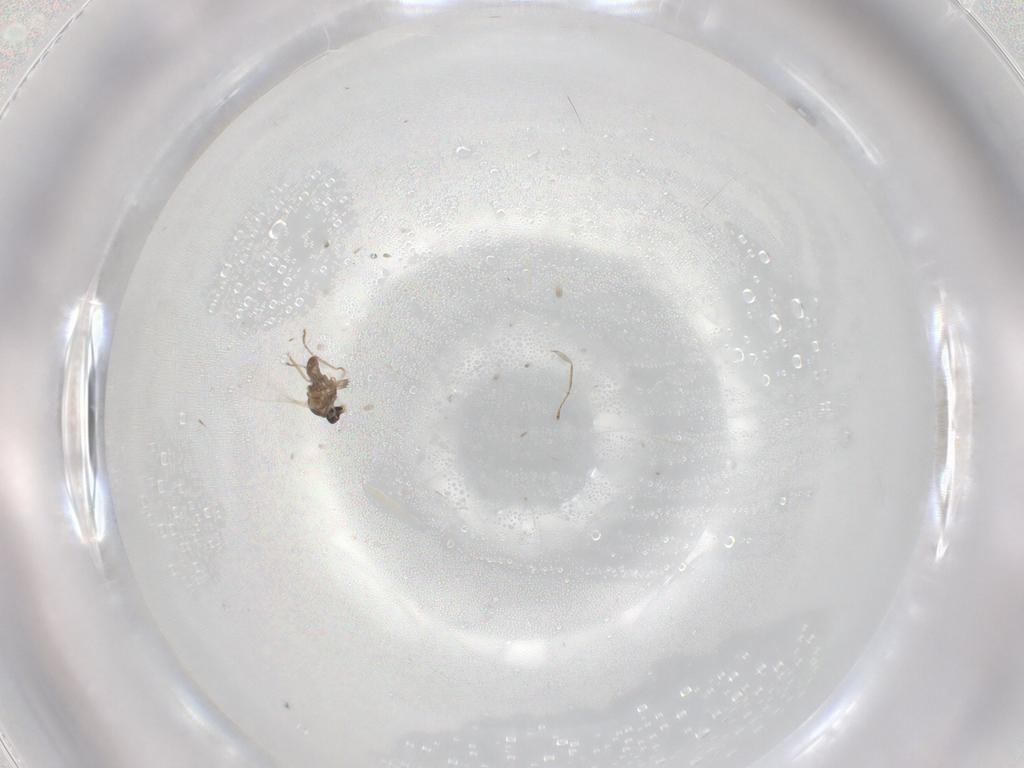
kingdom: Animalia
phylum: Arthropoda
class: Insecta
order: Diptera
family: Cecidomyiidae
